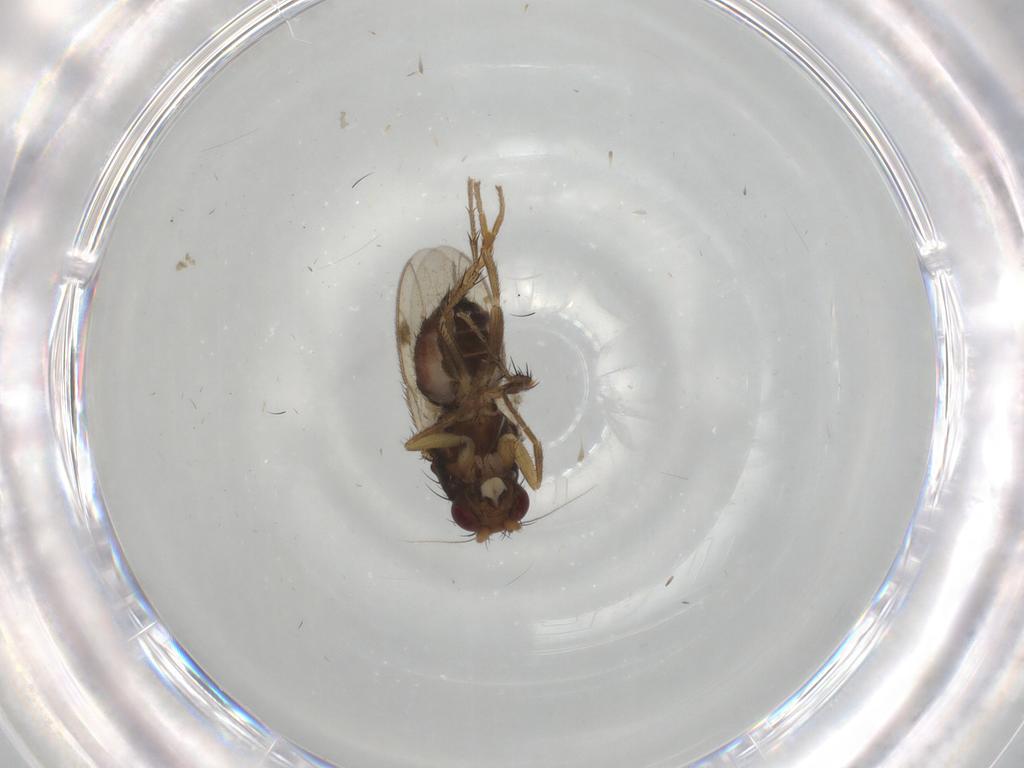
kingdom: Animalia
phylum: Arthropoda
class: Insecta
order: Diptera
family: Sphaeroceridae
